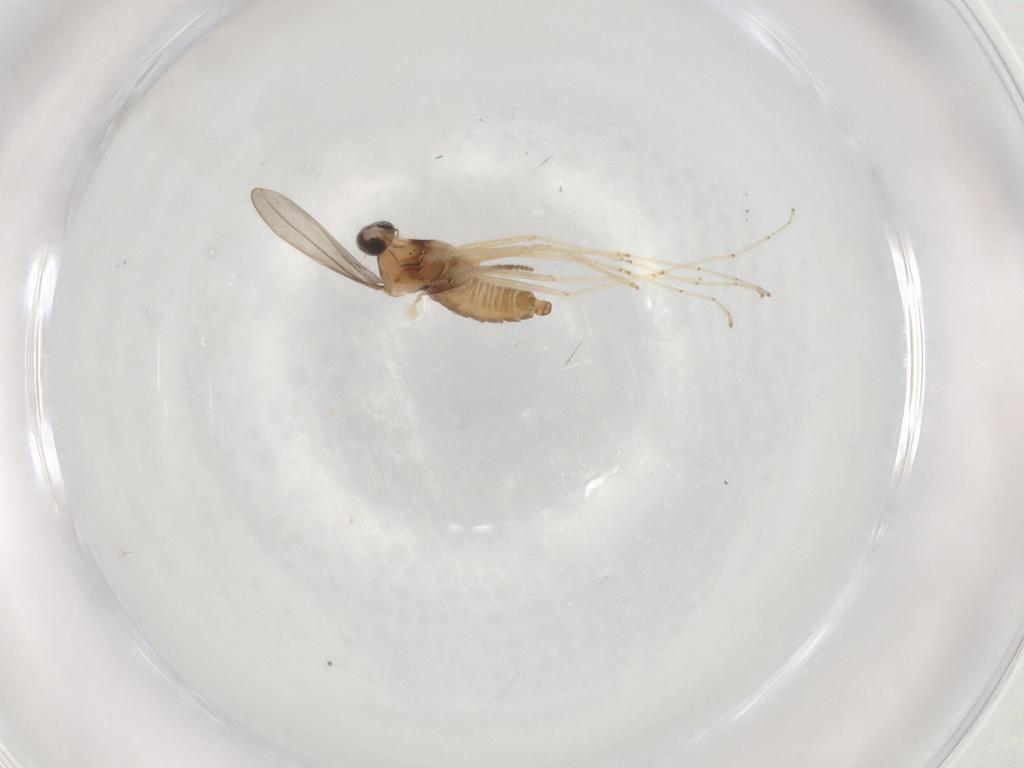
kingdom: Animalia
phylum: Arthropoda
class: Insecta
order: Diptera
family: Cecidomyiidae
